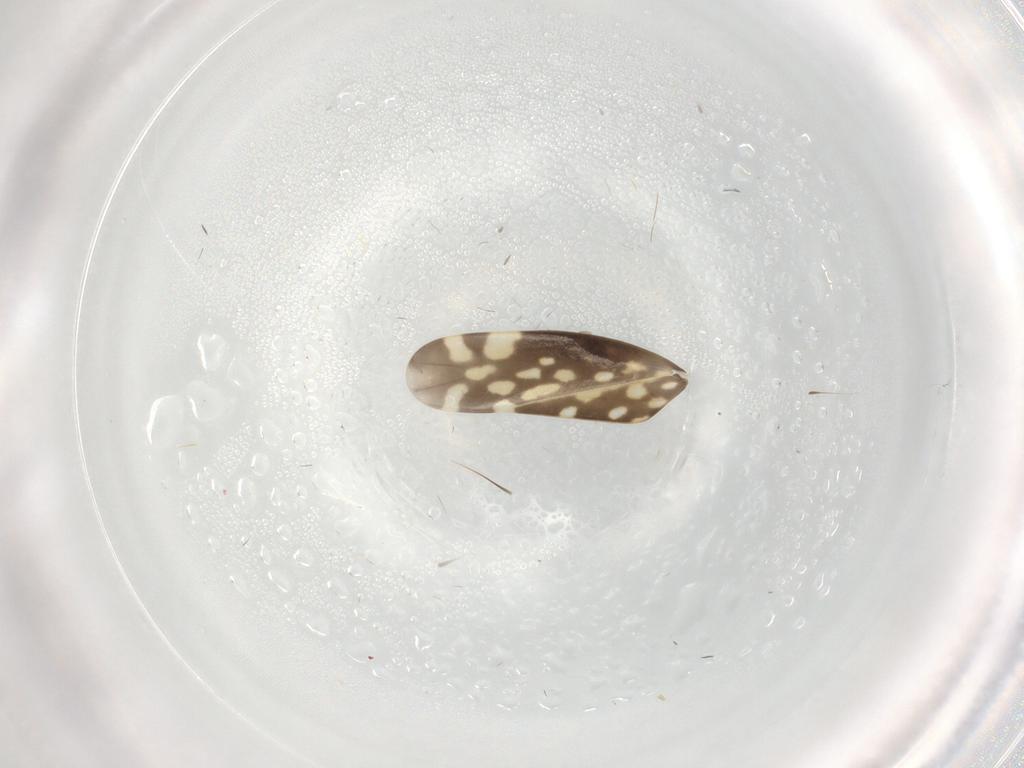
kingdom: Animalia
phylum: Arthropoda
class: Insecta
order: Hemiptera
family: Cicadellidae
